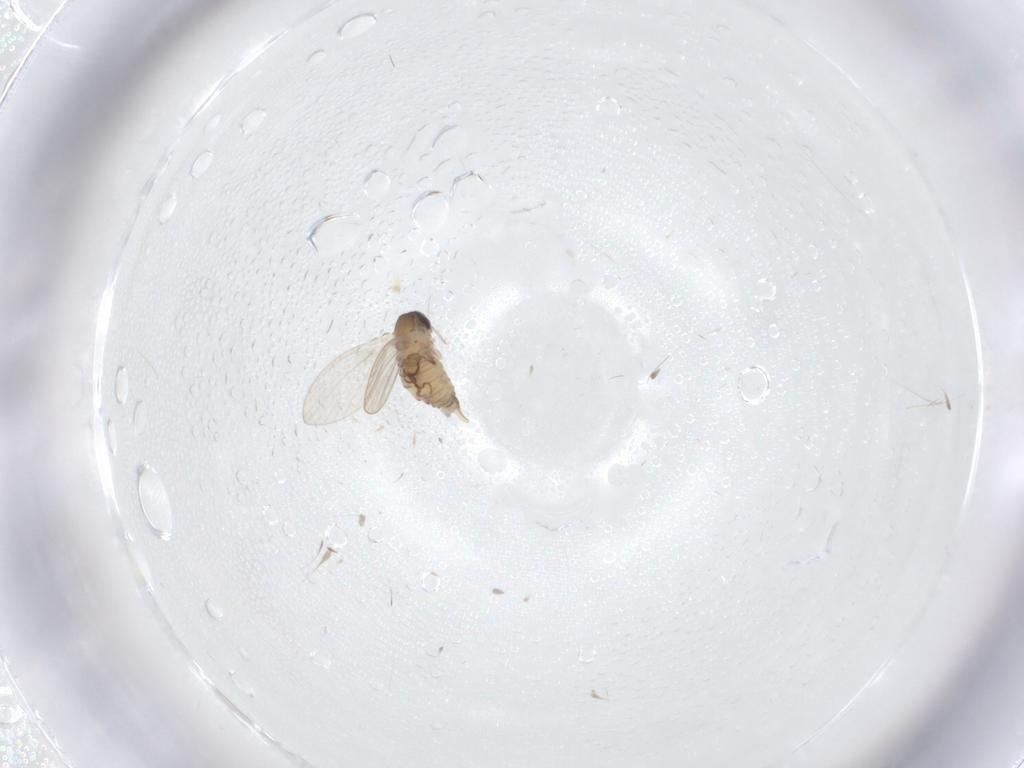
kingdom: Animalia
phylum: Arthropoda
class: Insecta
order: Diptera
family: Psychodidae
